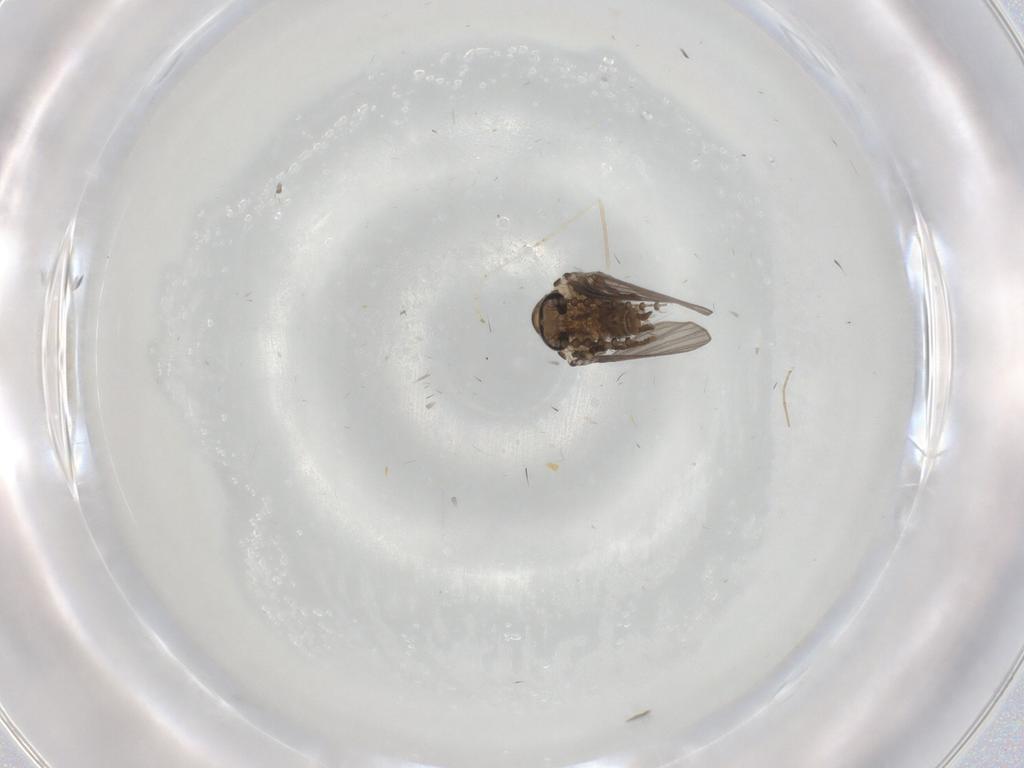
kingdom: Animalia
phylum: Arthropoda
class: Insecta
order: Diptera
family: Psychodidae
